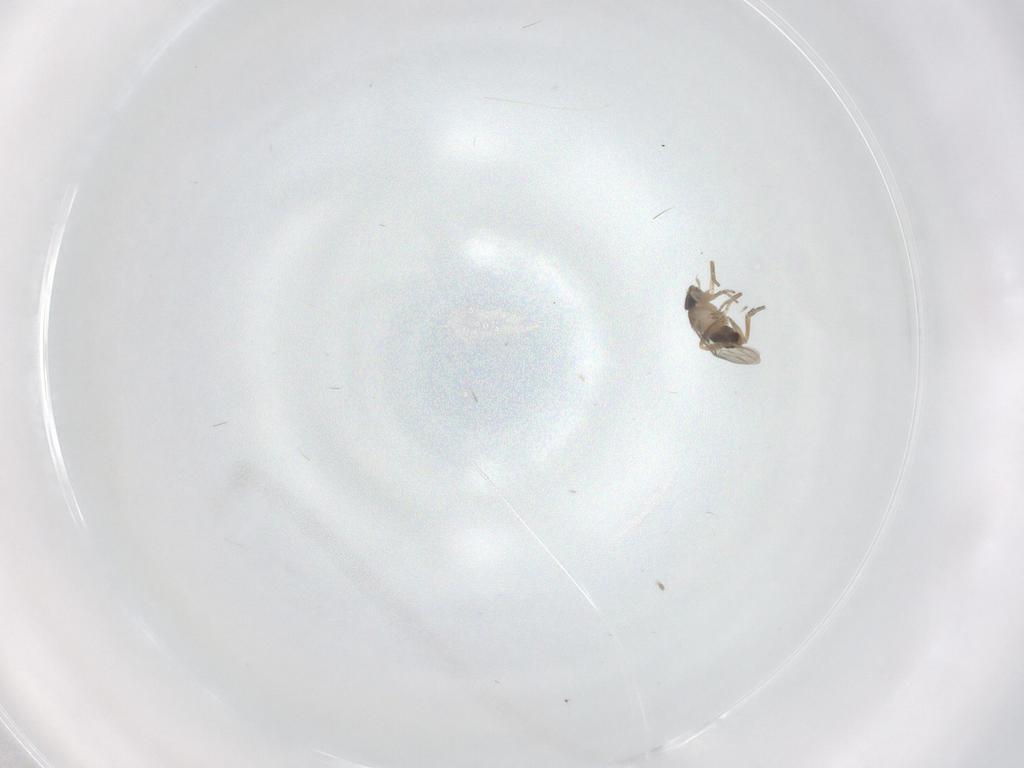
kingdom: Animalia
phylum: Arthropoda
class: Insecta
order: Diptera
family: Phoridae
